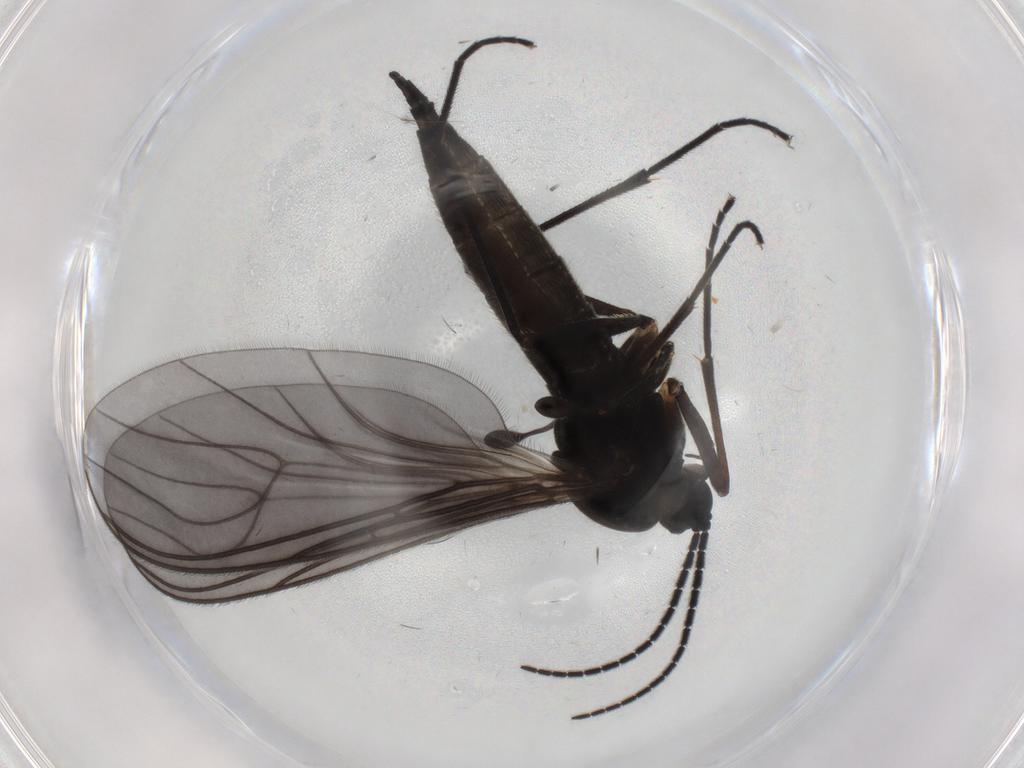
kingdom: Animalia
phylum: Arthropoda
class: Insecta
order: Diptera
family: Sciaridae
